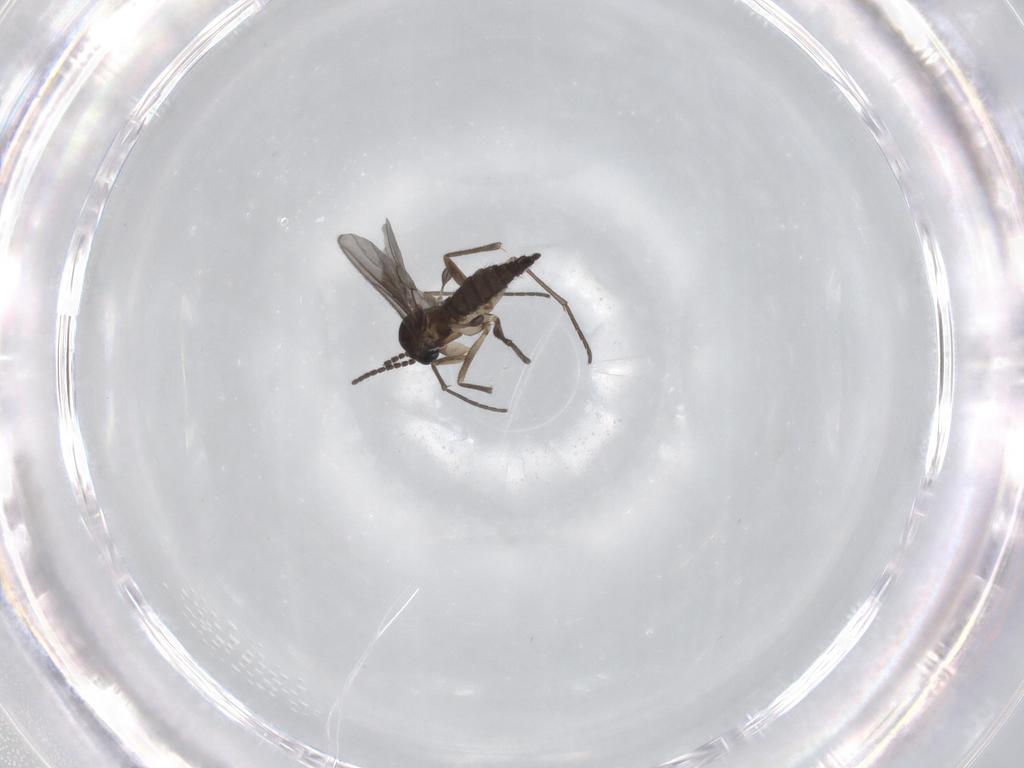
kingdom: Animalia
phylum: Arthropoda
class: Insecta
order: Diptera
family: Sciaridae
